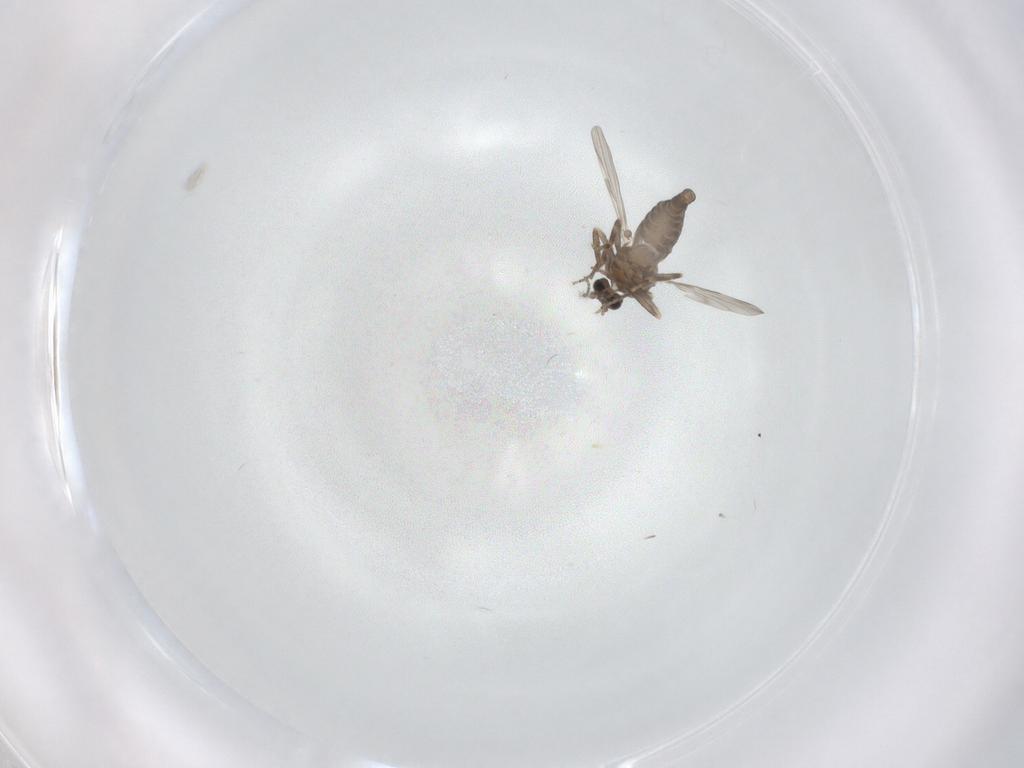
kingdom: Animalia
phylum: Arthropoda
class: Insecta
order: Diptera
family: Ceratopogonidae
